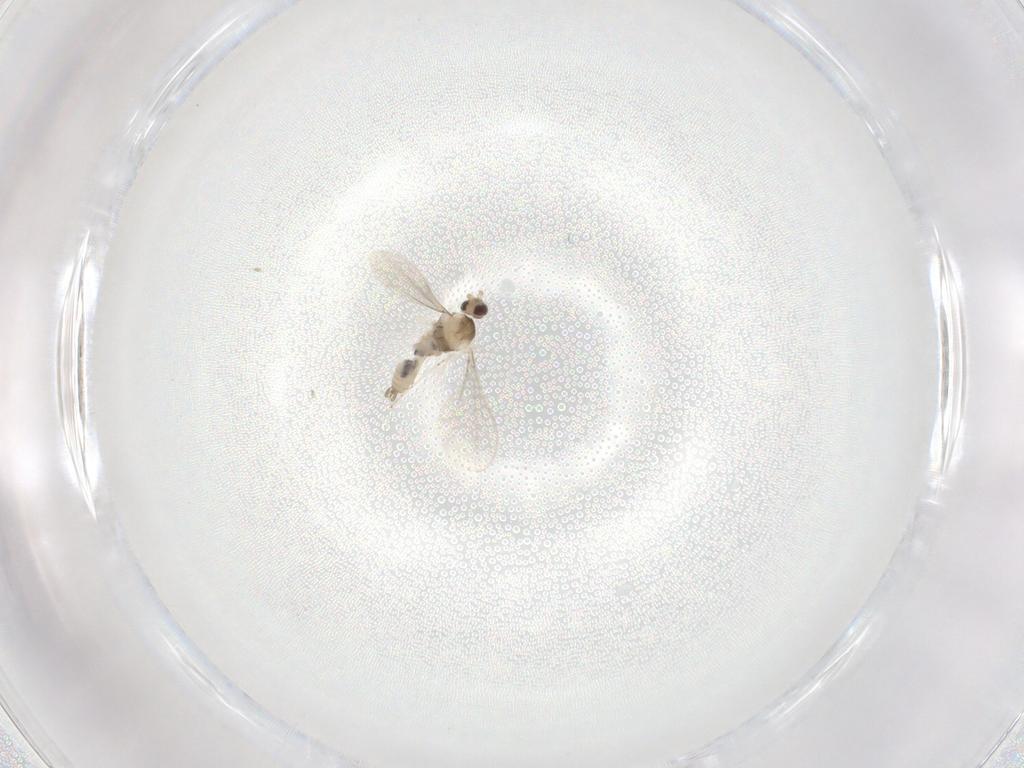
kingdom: Animalia
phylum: Arthropoda
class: Insecta
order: Diptera
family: Cecidomyiidae
